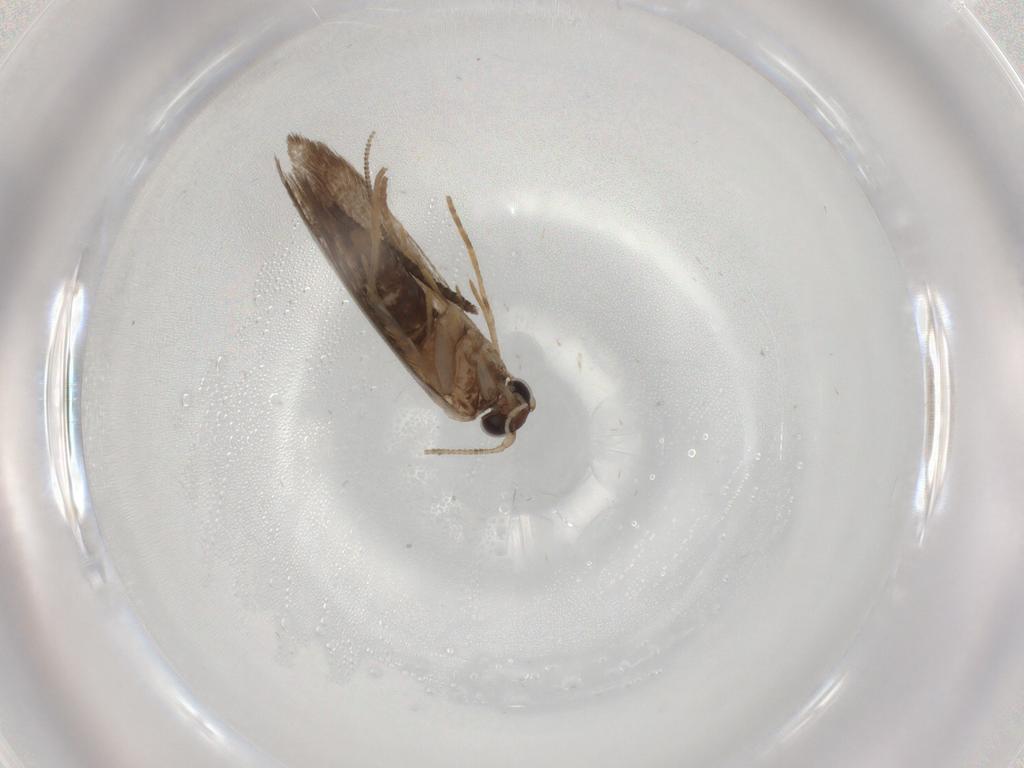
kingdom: Animalia
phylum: Arthropoda
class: Insecta
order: Lepidoptera
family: Tineidae
